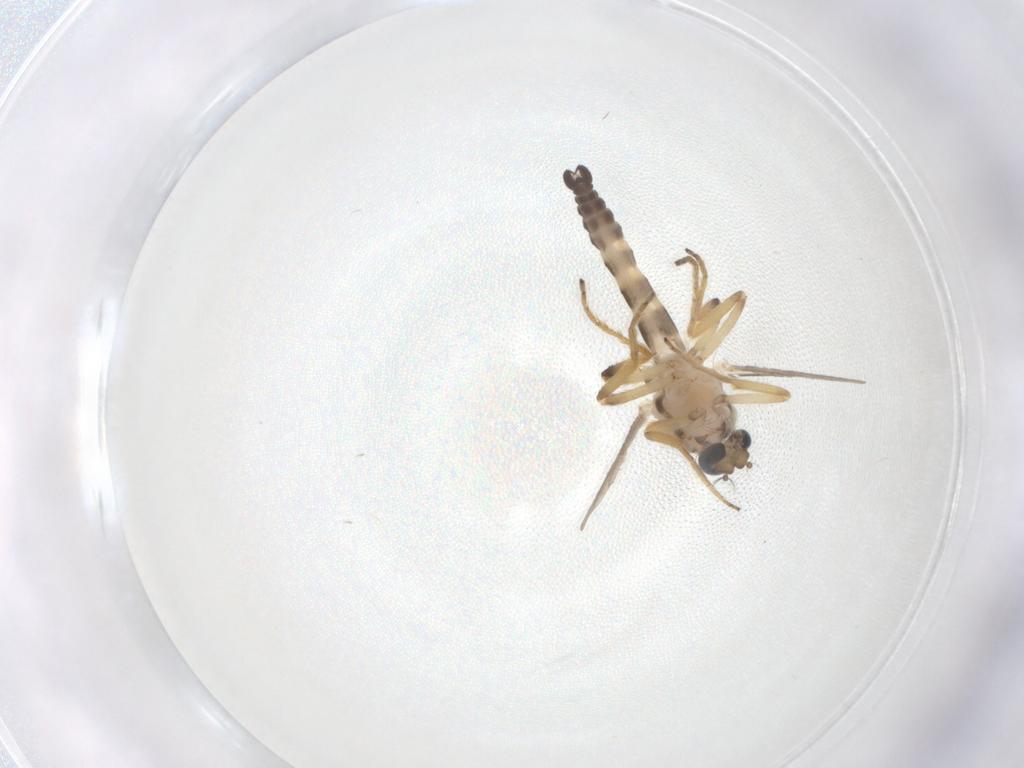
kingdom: Animalia
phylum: Arthropoda
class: Insecta
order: Diptera
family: Ceratopogonidae
